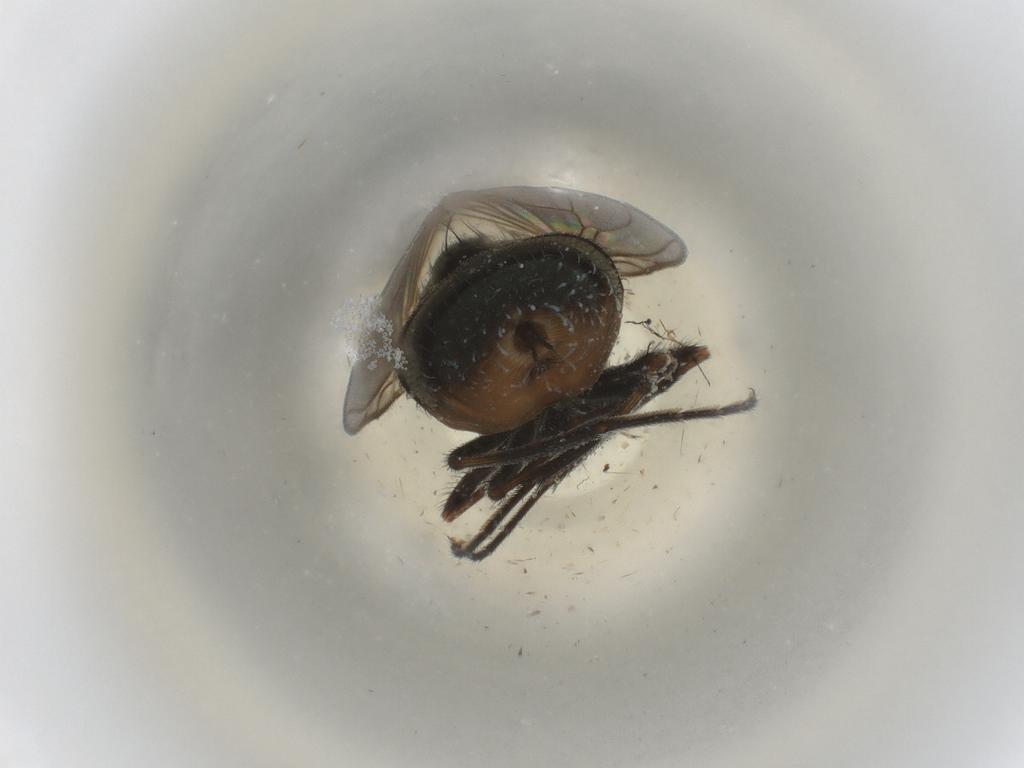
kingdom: Animalia
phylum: Arthropoda
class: Insecta
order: Diptera
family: Muscidae
